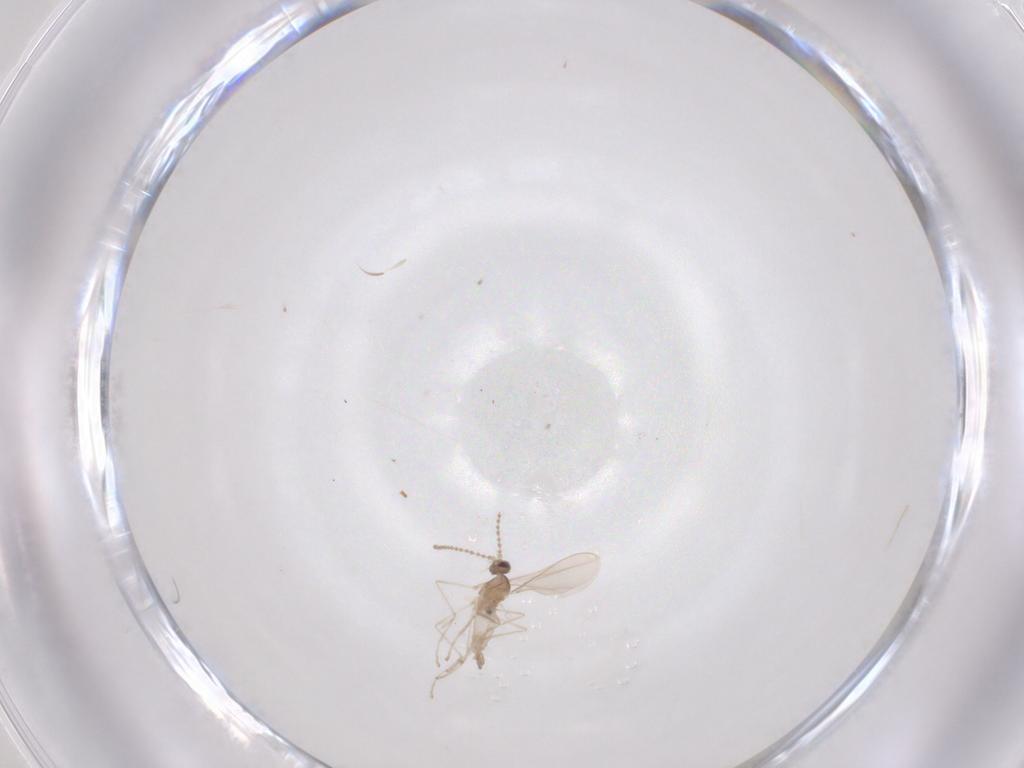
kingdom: Animalia
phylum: Arthropoda
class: Insecta
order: Diptera
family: Cecidomyiidae
